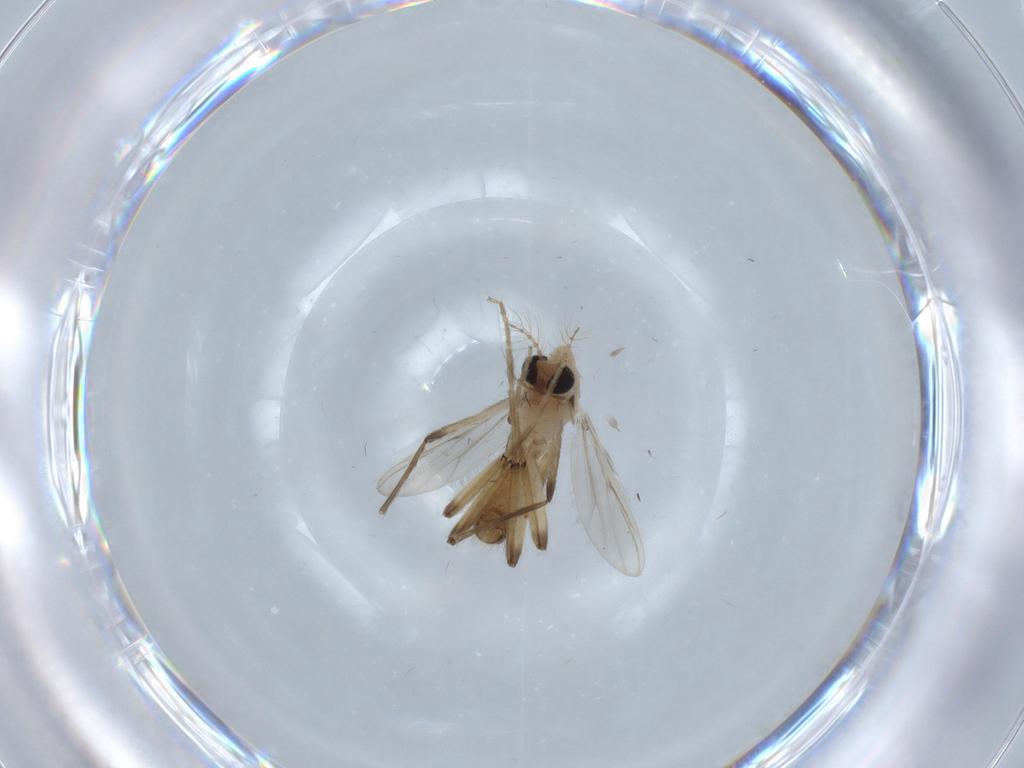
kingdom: Animalia
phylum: Arthropoda
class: Insecta
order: Diptera
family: Chironomidae
